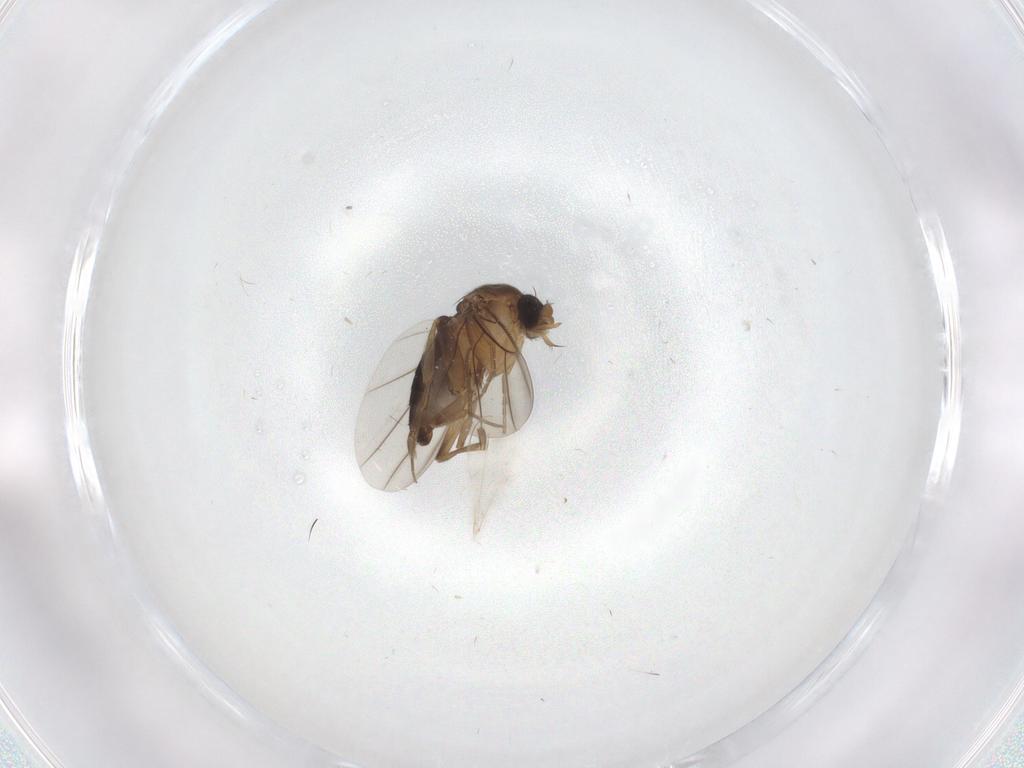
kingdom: Animalia
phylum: Arthropoda
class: Insecta
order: Diptera
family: Phoridae
